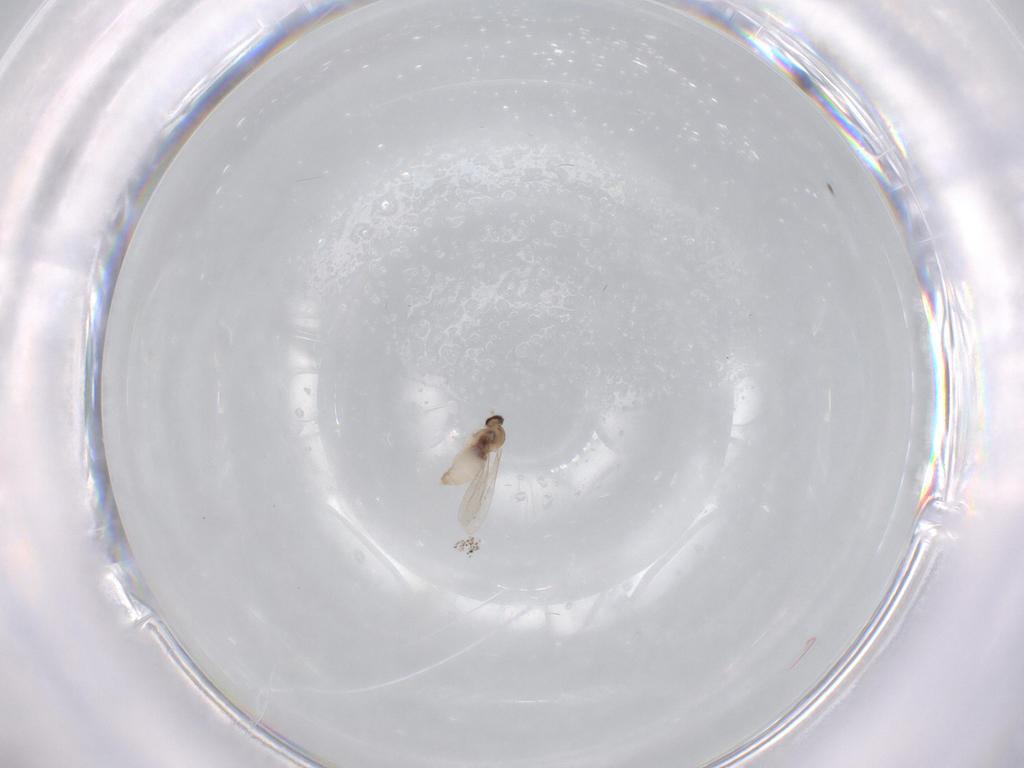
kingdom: Animalia
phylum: Arthropoda
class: Insecta
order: Diptera
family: Cecidomyiidae
